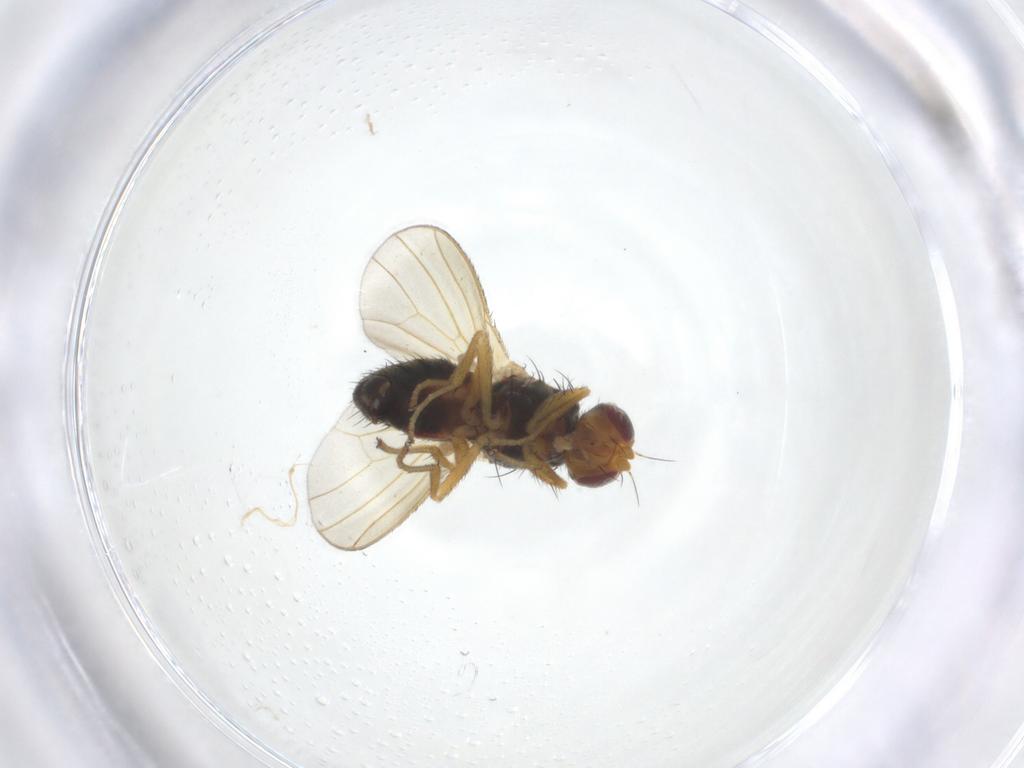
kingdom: Animalia
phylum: Arthropoda
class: Insecta
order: Diptera
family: Heleomyzidae
